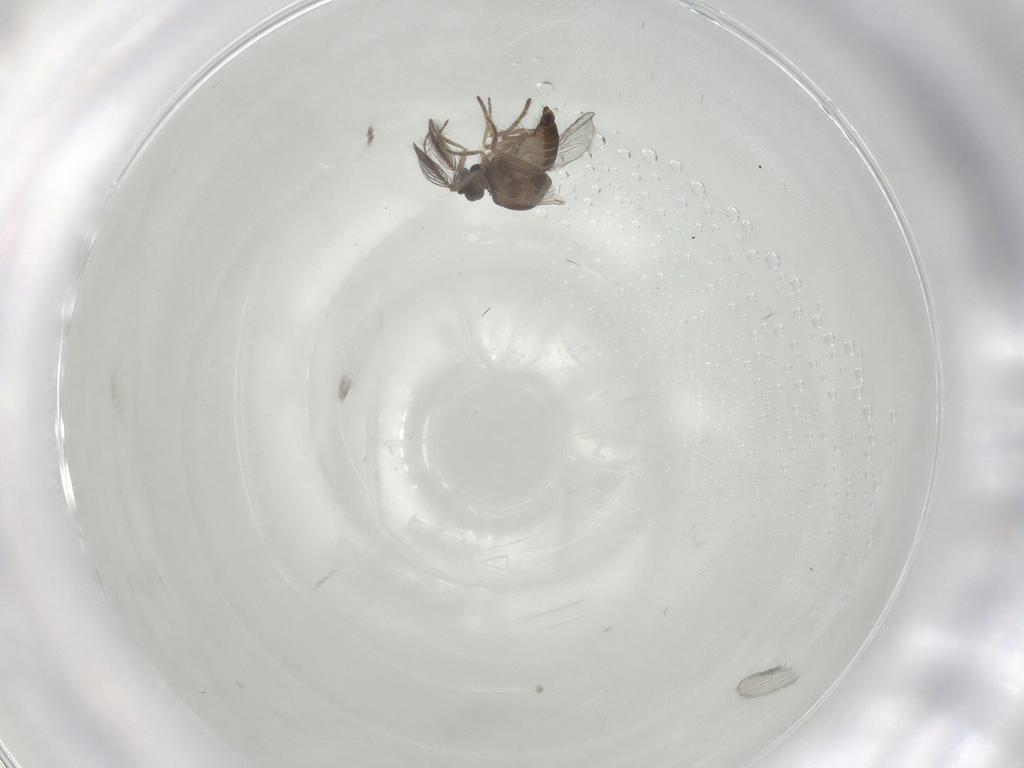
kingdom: Animalia
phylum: Arthropoda
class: Insecta
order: Diptera
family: Ceratopogonidae
